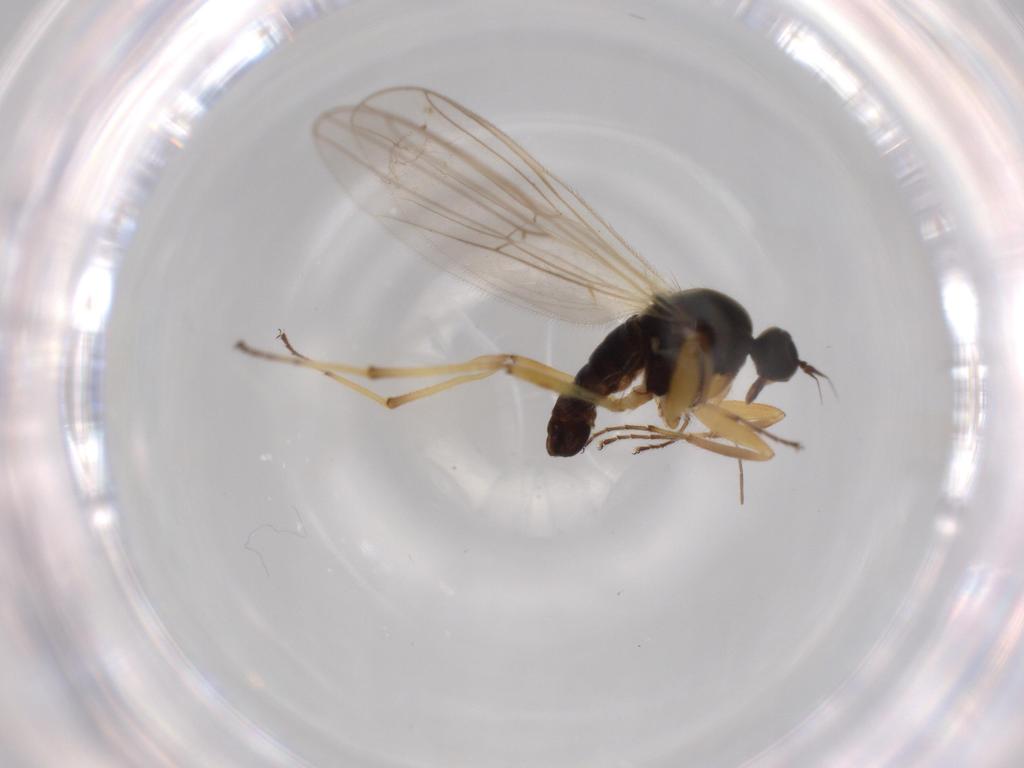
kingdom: Animalia
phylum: Arthropoda
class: Insecta
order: Diptera
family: Hybotidae
